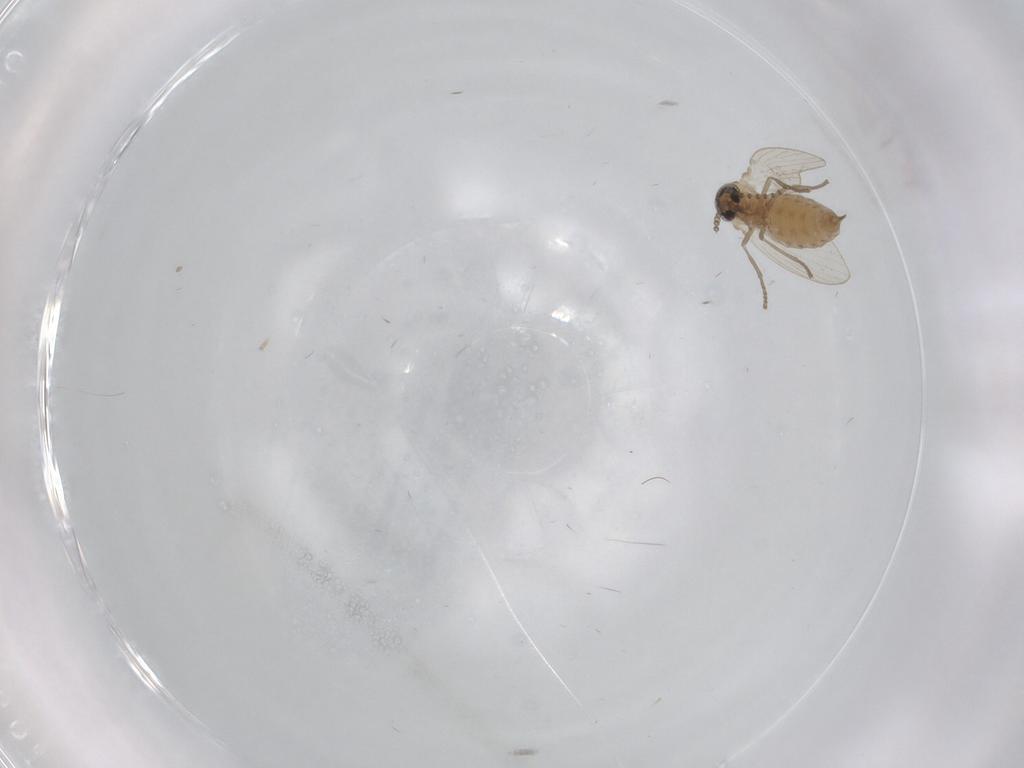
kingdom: Animalia
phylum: Arthropoda
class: Insecta
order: Diptera
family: Psychodidae
